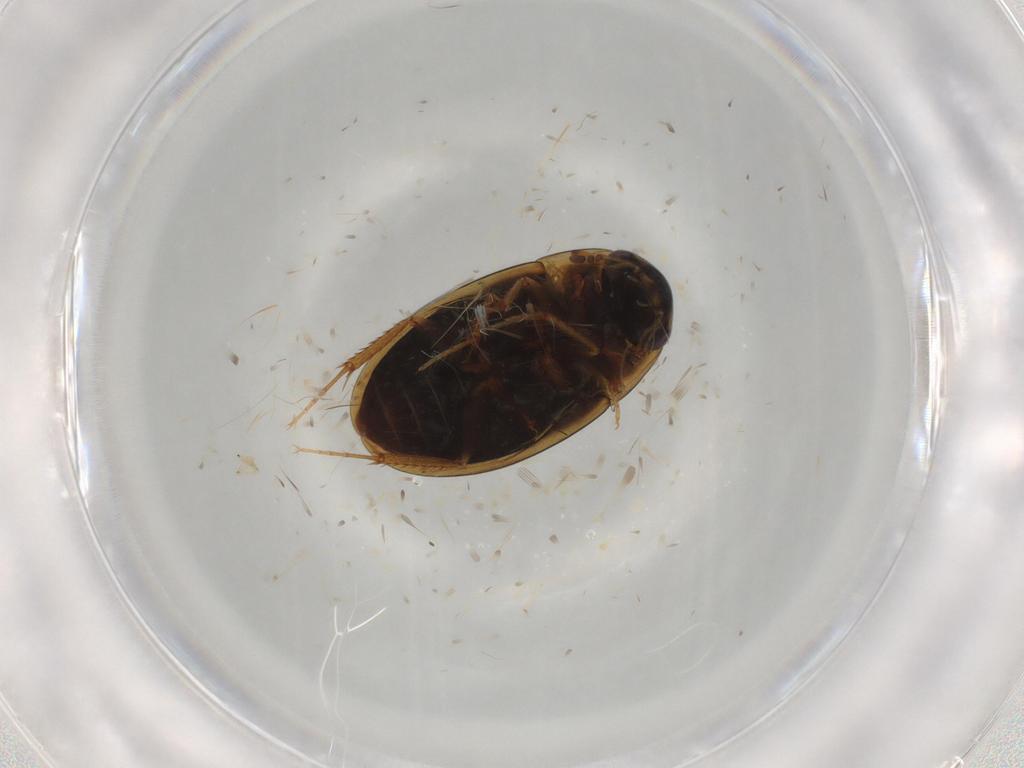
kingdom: Animalia
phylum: Arthropoda
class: Insecta
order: Coleoptera
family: Hydrophilidae
